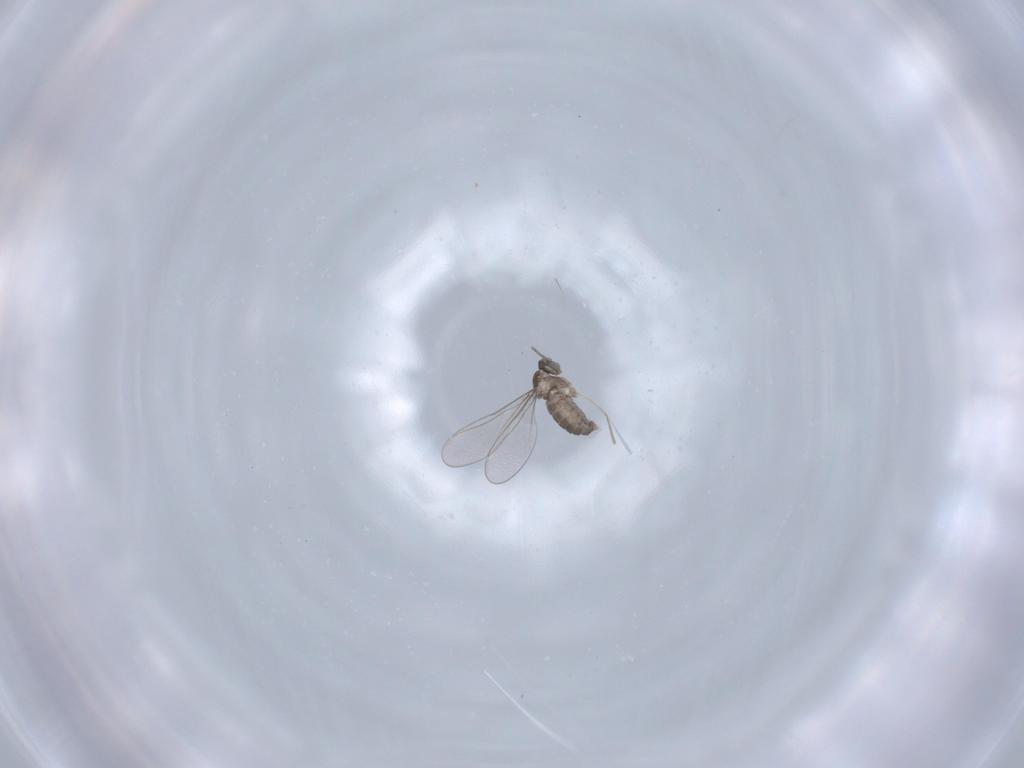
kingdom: Animalia
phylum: Arthropoda
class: Insecta
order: Diptera
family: Cecidomyiidae
